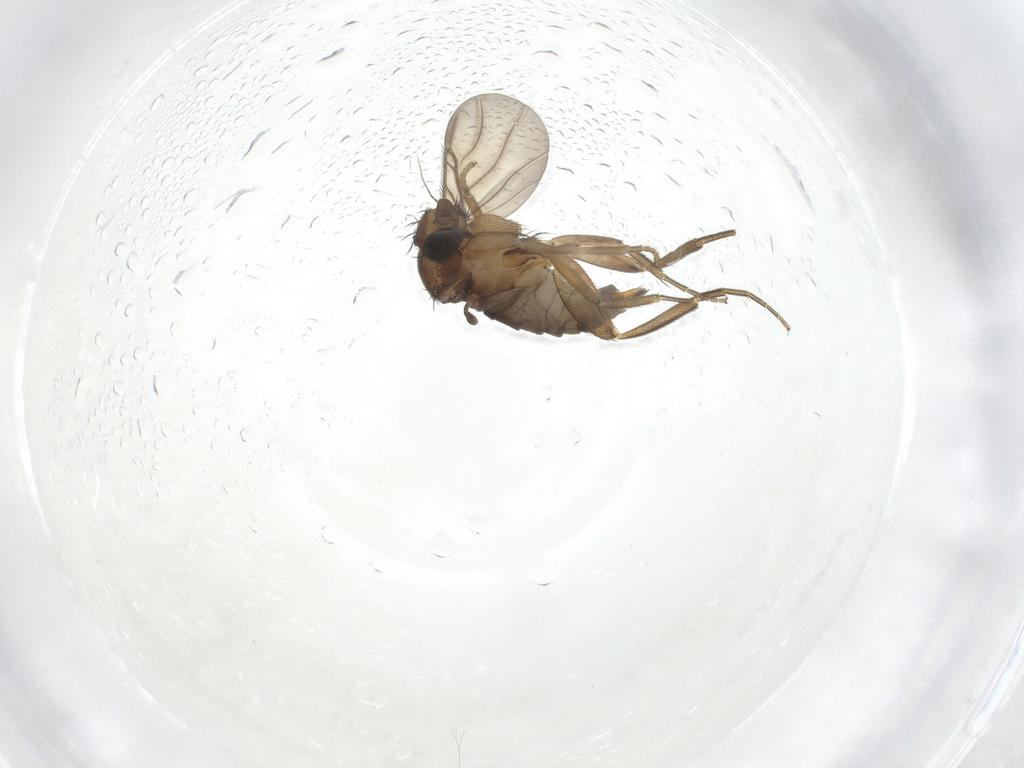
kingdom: Animalia
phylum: Arthropoda
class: Insecta
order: Diptera
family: Phoridae
